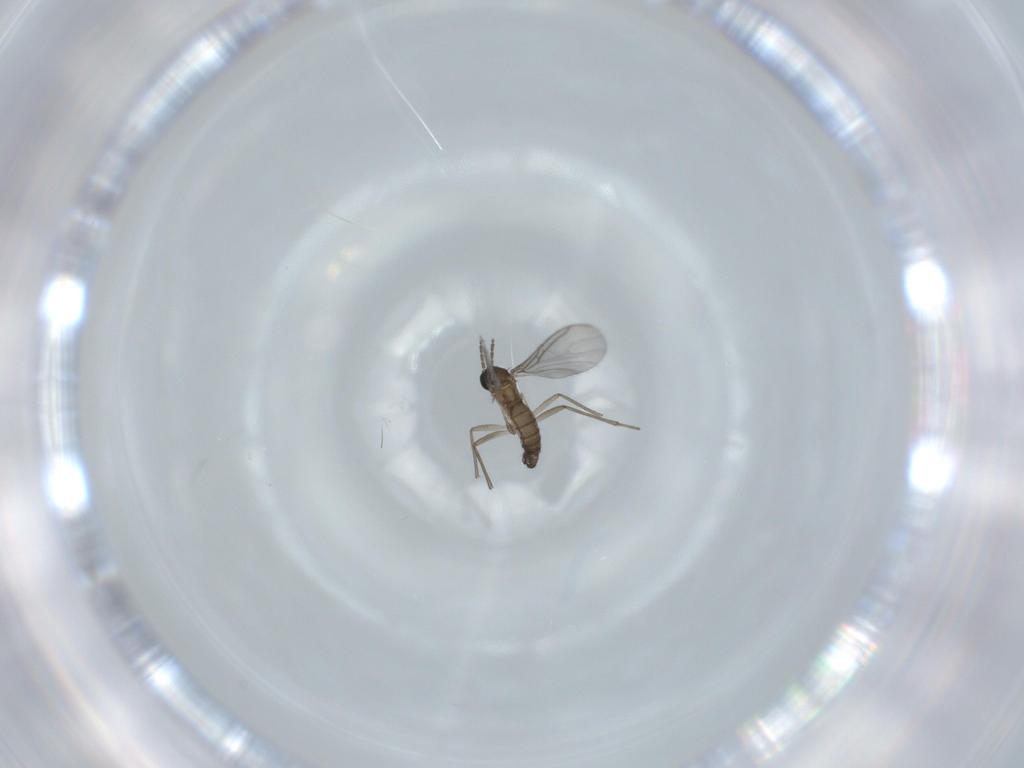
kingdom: Animalia
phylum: Arthropoda
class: Insecta
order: Diptera
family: Sciaridae
